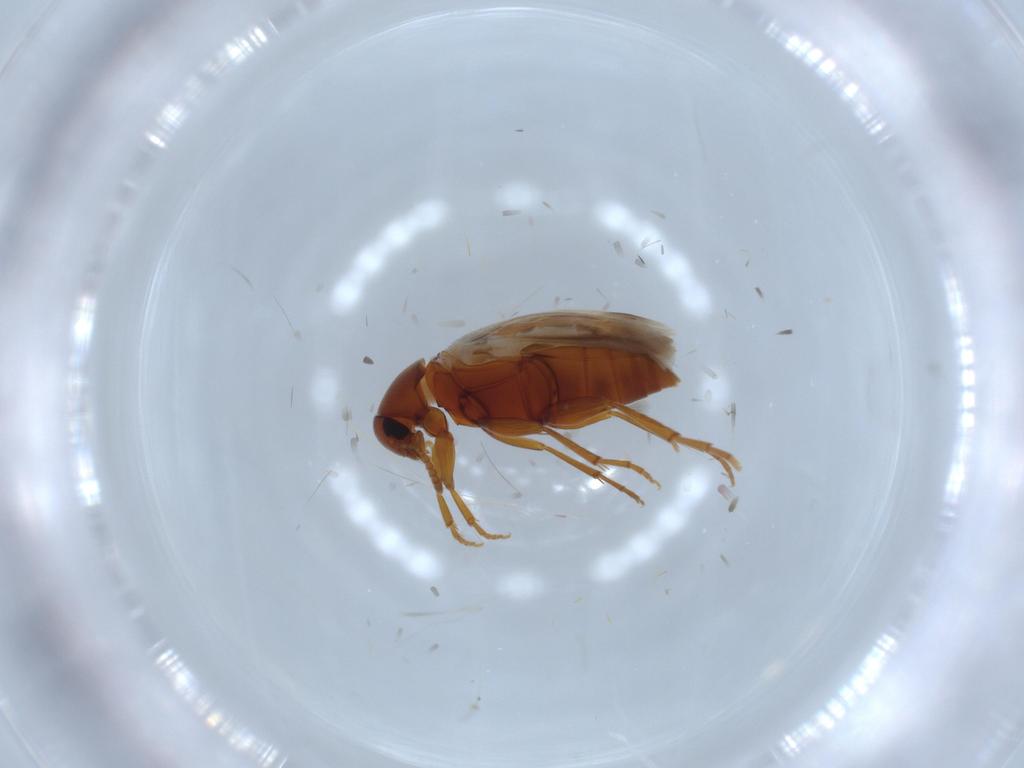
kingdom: Animalia
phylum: Arthropoda
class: Insecta
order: Coleoptera
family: Scraptiidae
